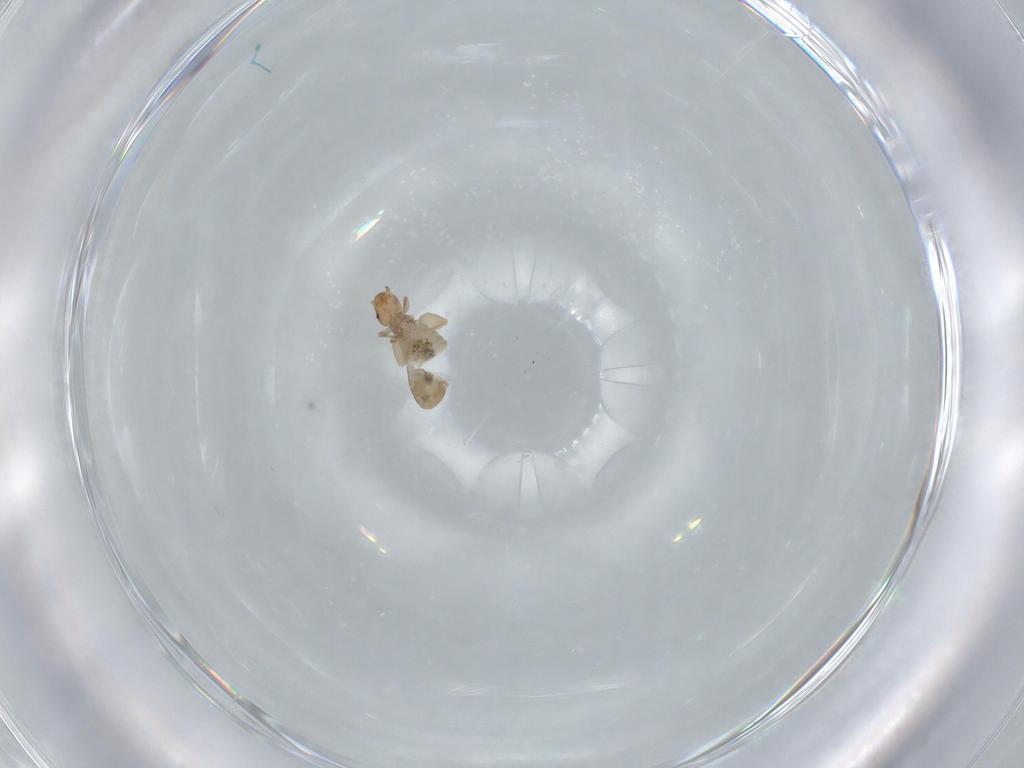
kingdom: Animalia
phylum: Arthropoda
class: Insecta
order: Psocodea
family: Liposcelididae
